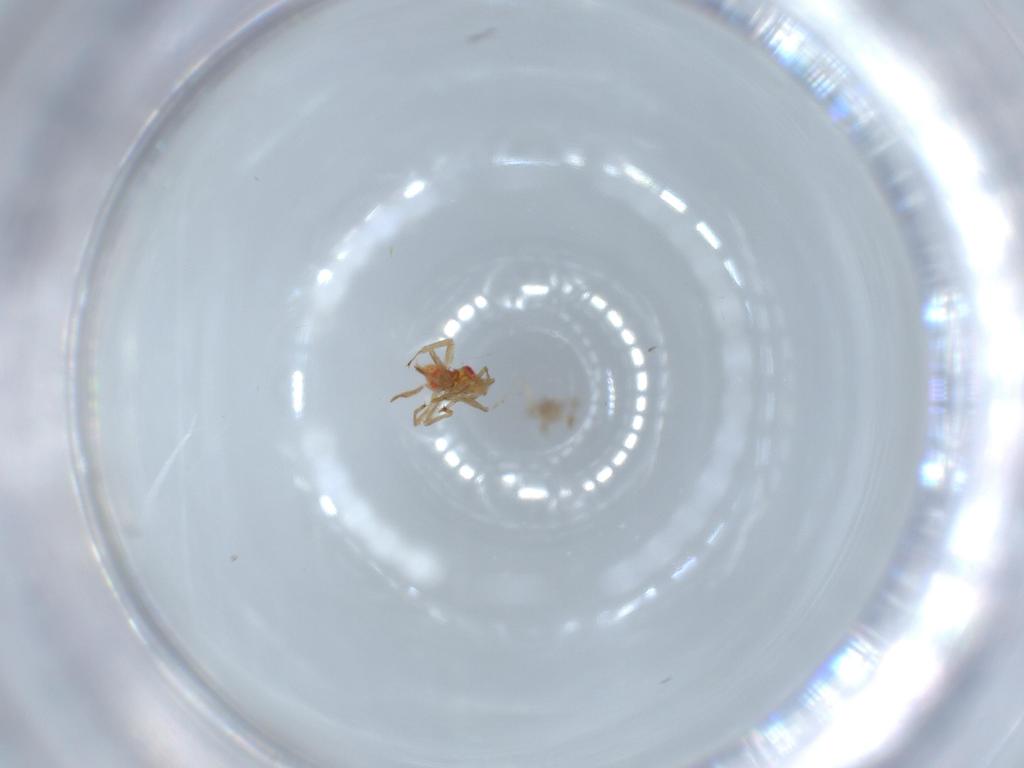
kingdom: Animalia
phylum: Arthropoda
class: Insecta
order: Hemiptera
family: Miridae
